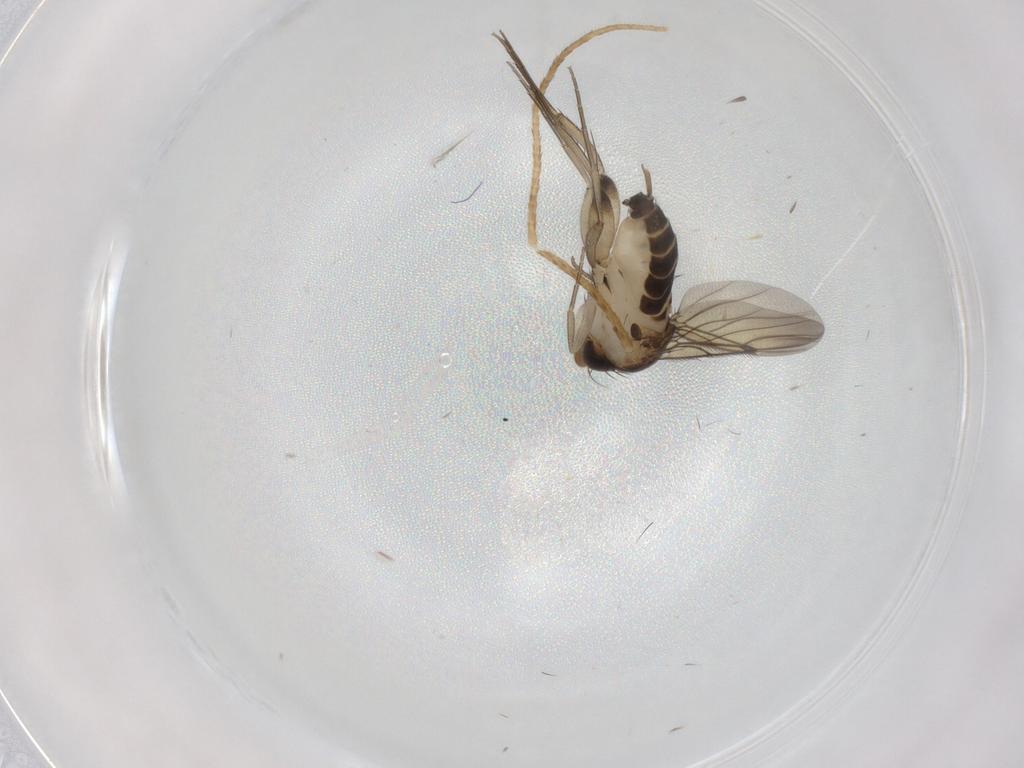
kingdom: Animalia
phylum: Arthropoda
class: Insecta
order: Diptera
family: Phoridae
